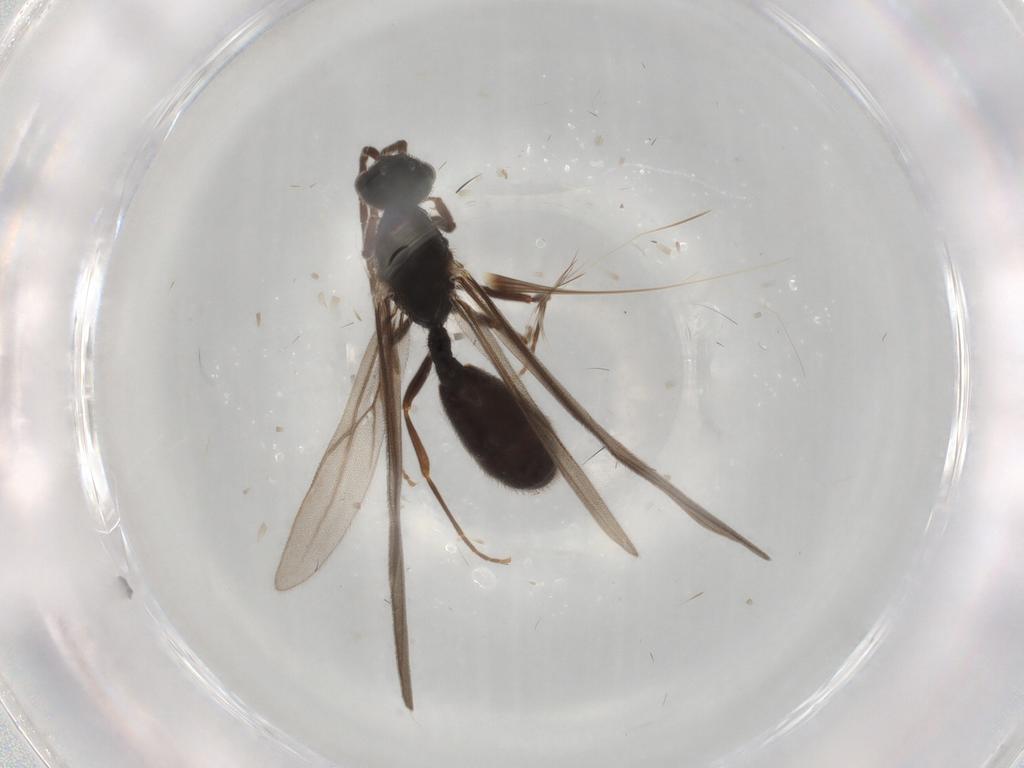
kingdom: Animalia
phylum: Arthropoda
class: Insecta
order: Hymenoptera
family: Formicidae
